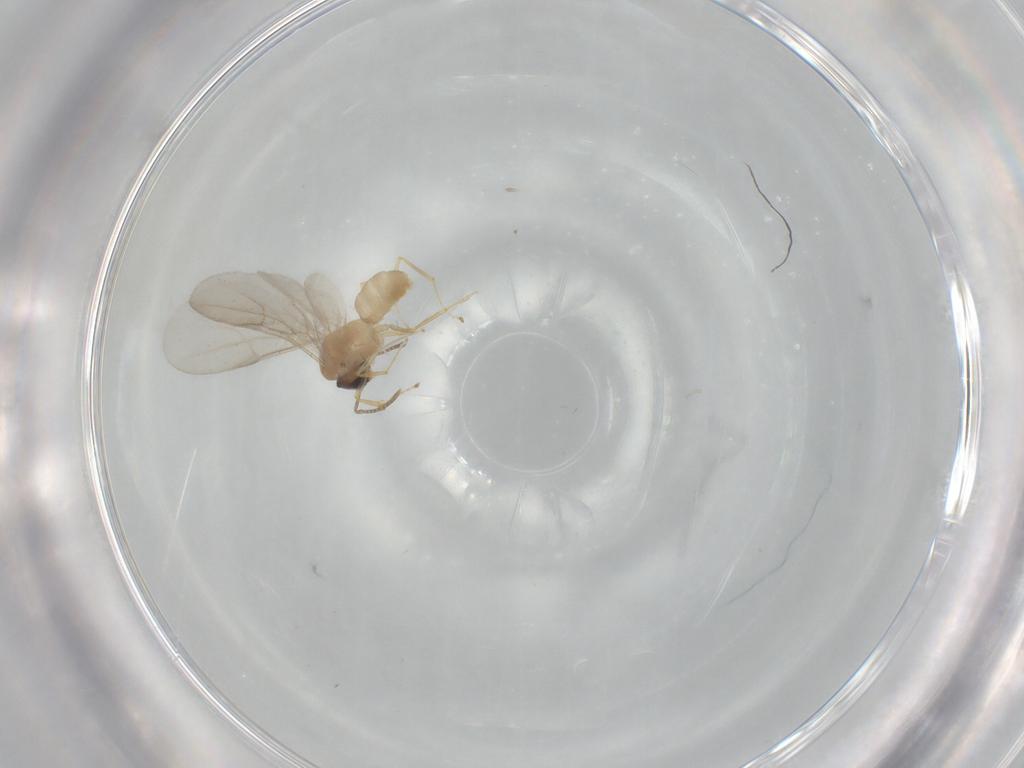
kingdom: Animalia
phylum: Arthropoda
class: Insecta
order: Hymenoptera
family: Formicidae
